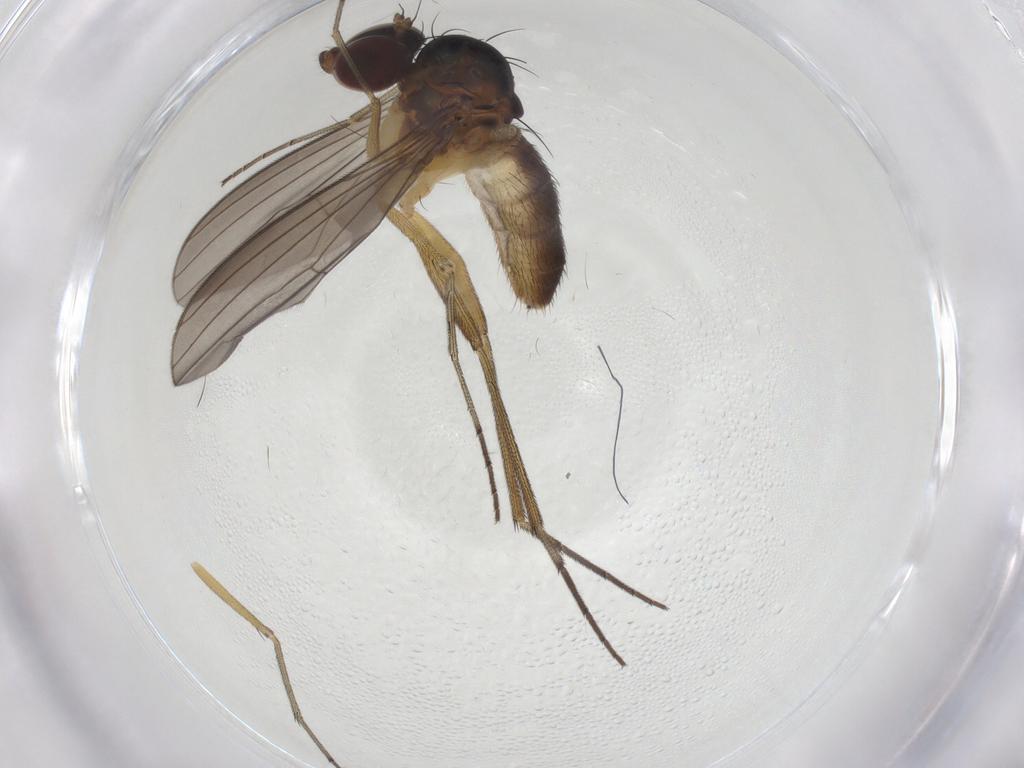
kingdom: Animalia
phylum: Arthropoda
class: Insecta
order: Diptera
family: Dolichopodidae
